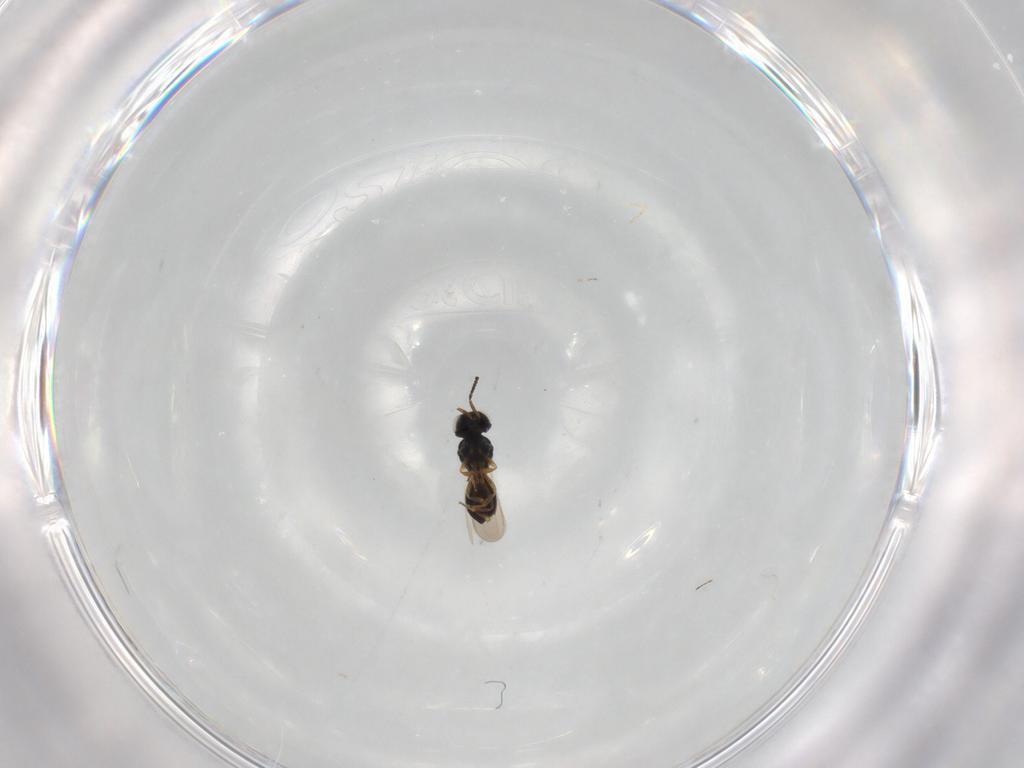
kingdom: Animalia
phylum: Arthropoda
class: Insecta
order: Hymenoptera
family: Scelionidae
